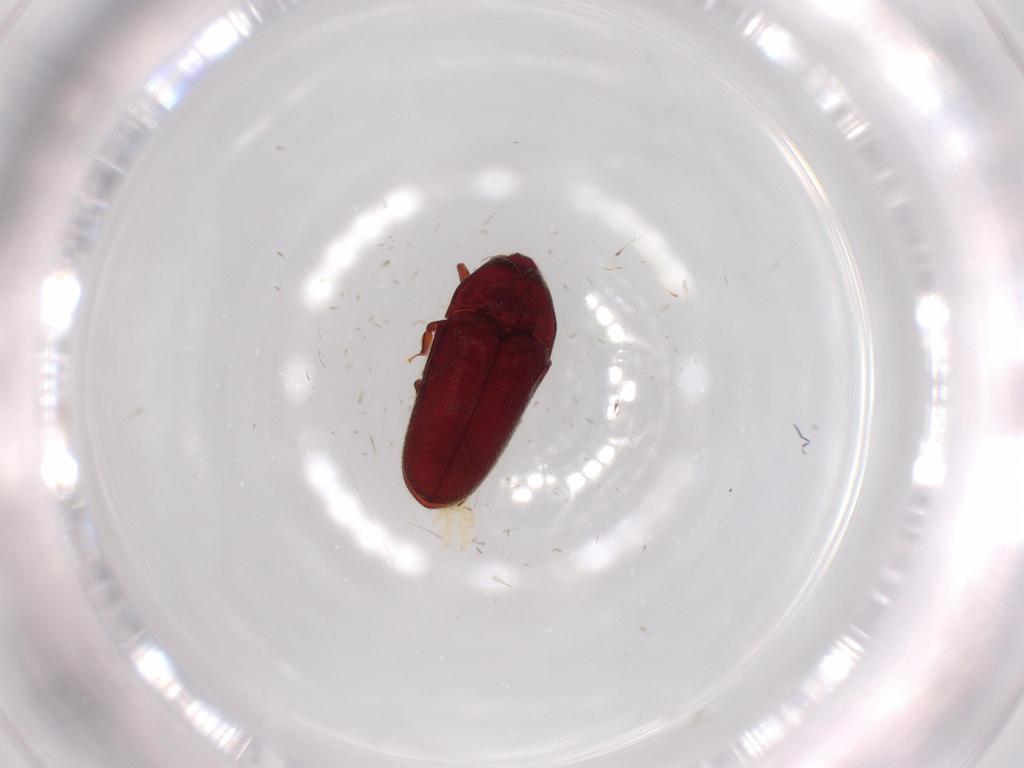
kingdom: Animalia
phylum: Arthropoda
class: Insecta
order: Coleoptera
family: Throscidae
